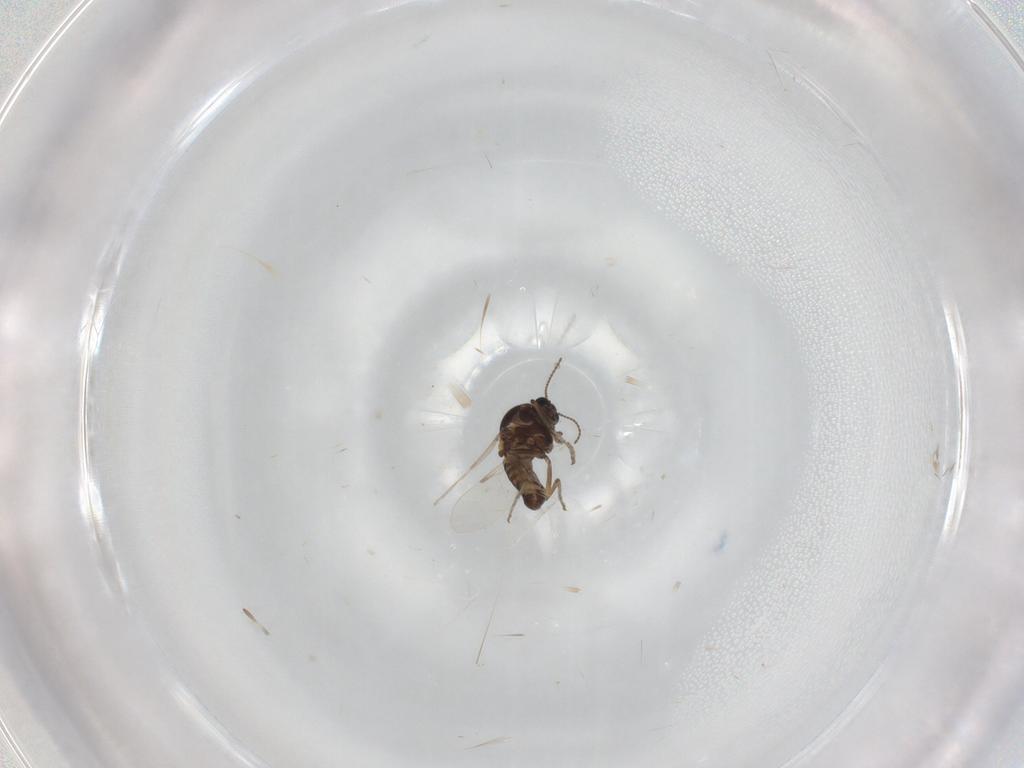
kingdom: Animalia
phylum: Arthropoda
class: Insecta
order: Diptera
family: Ceratopogonidae
